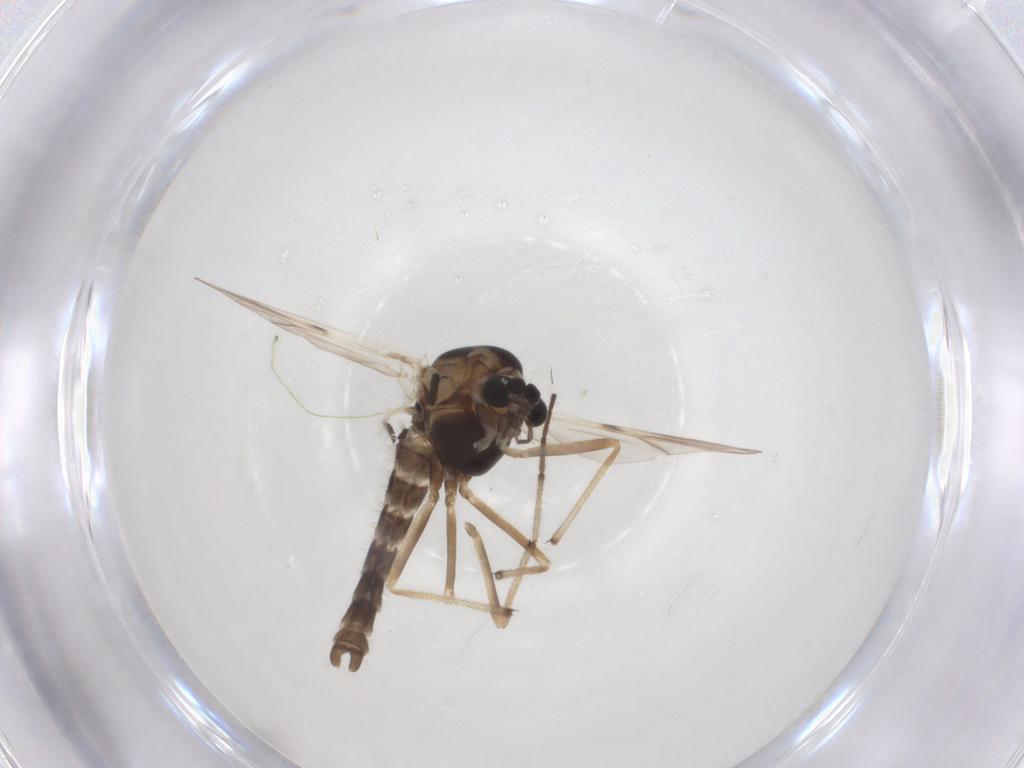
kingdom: Animalia
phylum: Arthropoda
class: Insecta
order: Diptera
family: Chironomidae
